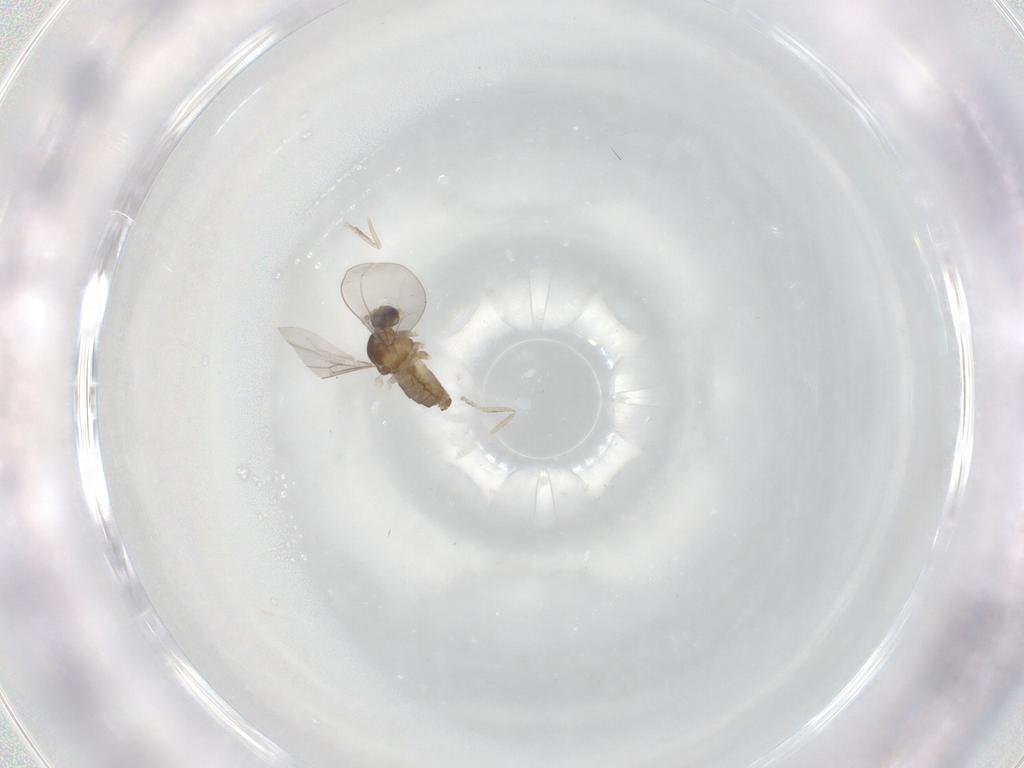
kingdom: Animalia
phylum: Arthropoda
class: Insecta
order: Diptera
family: Cecidomyiidae
